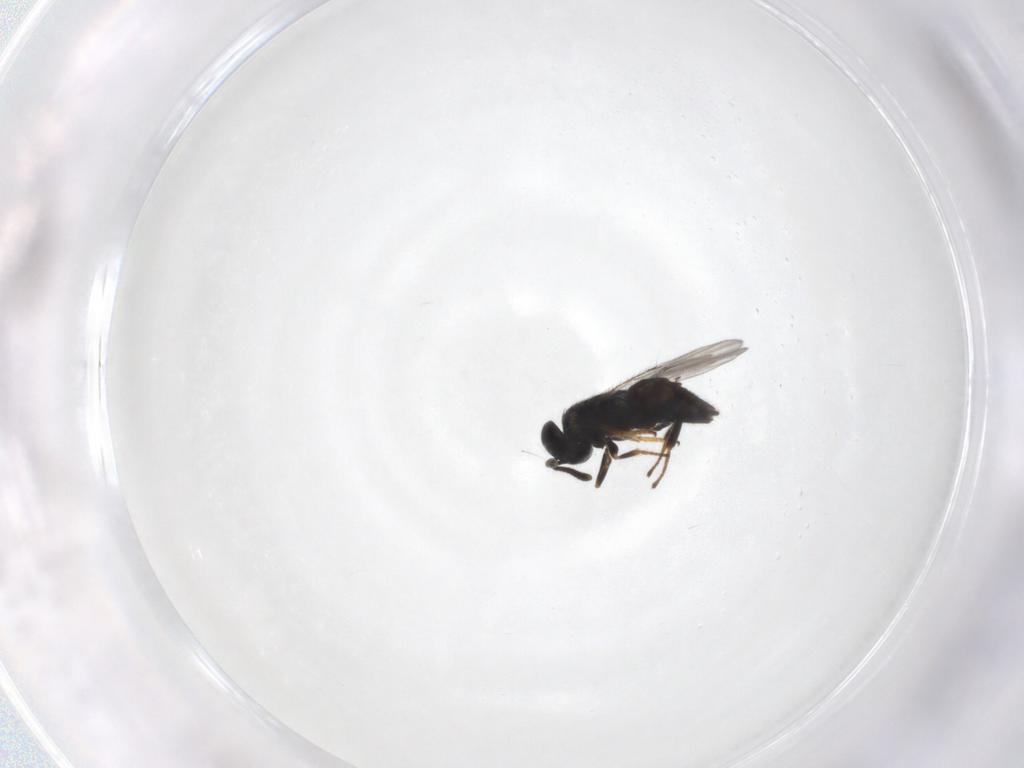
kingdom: Animalia
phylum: Arthropoda
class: Insecta
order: Hymenoptera
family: Encyrtidae
